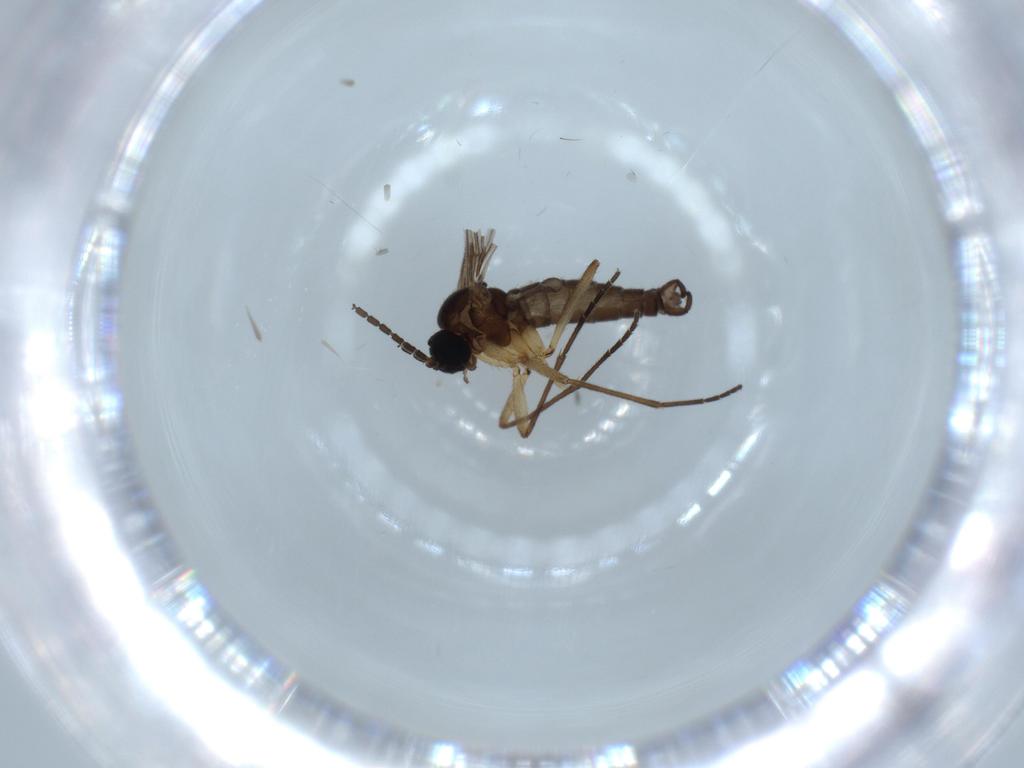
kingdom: Animalia
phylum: Arthropoda
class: Insecta
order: Diptera
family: Sciaridae
